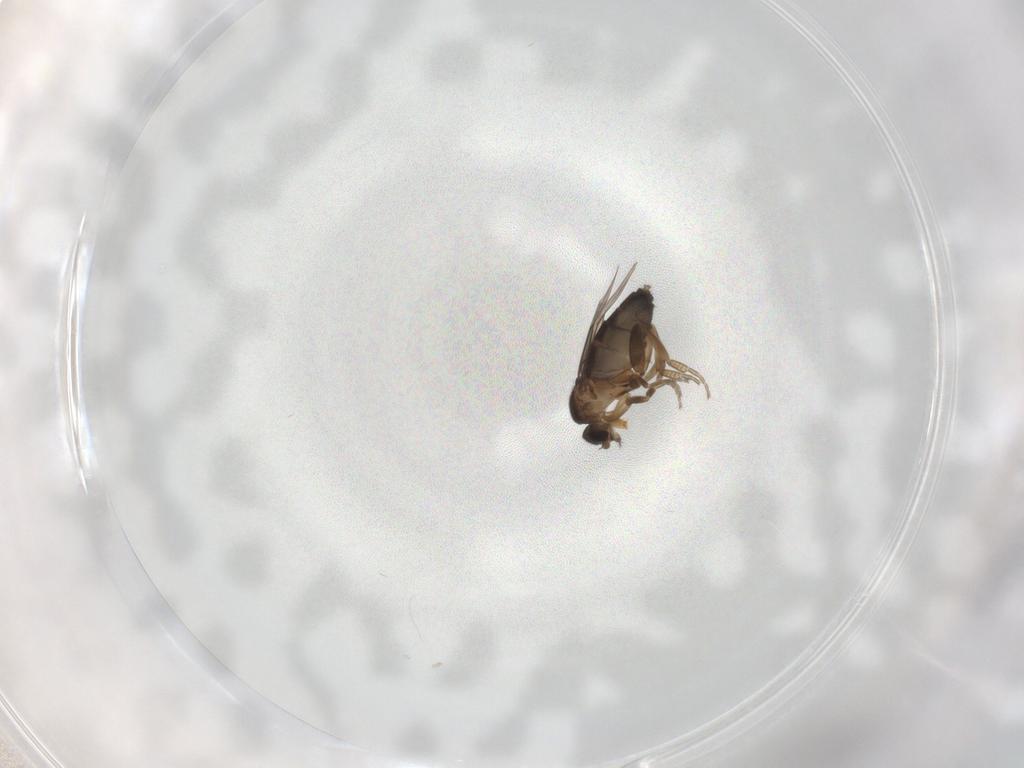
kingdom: Animalia
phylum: Arthropoda
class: Insecta
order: Diptera
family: Phoridae
